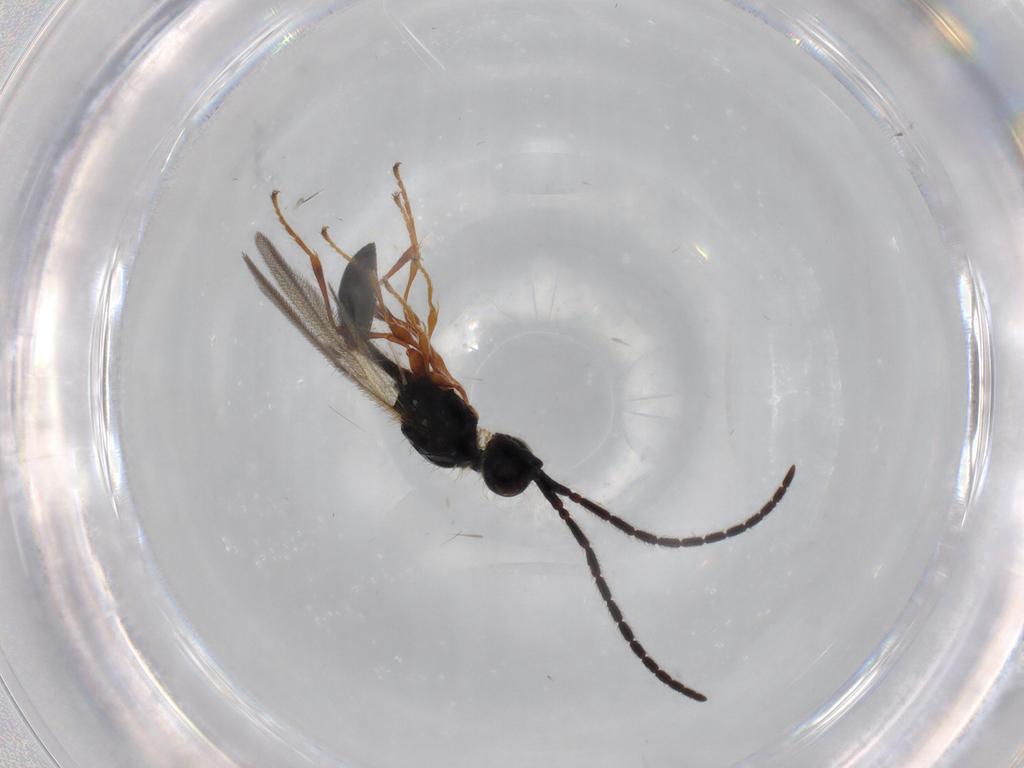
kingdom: Animalia
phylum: Arthropoda
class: Insecta
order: Hymenoptera
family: Diapriidae
